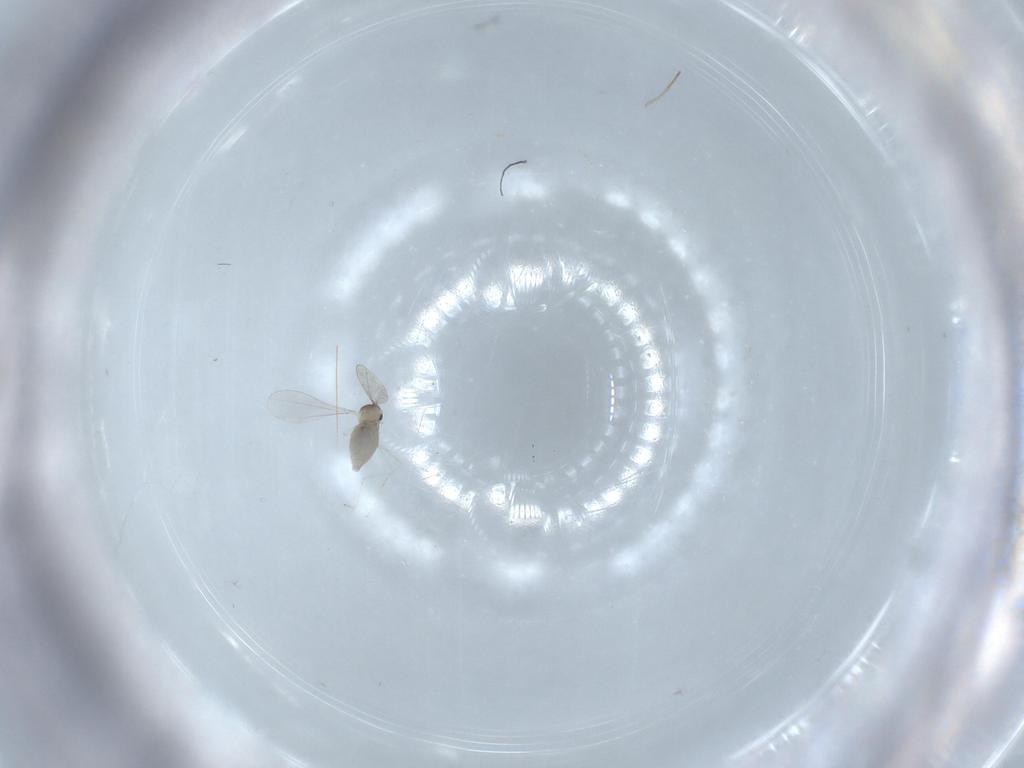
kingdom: Animalia
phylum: Arthropoda
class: Insecta
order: Diptera
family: Cecidomyiidae
